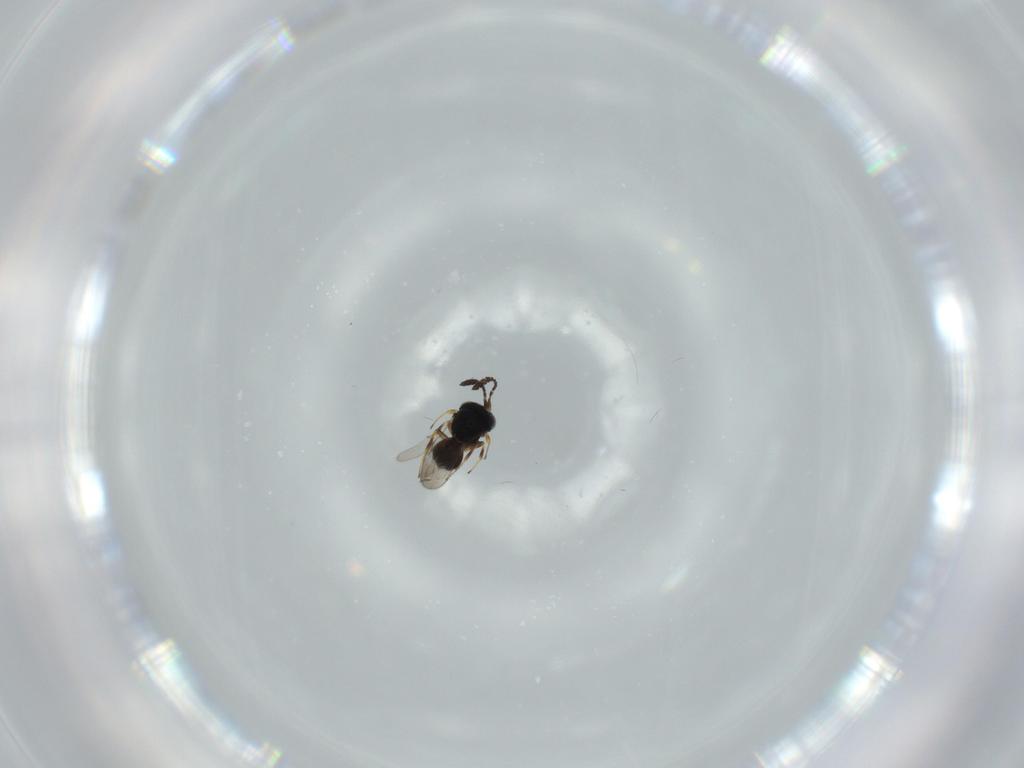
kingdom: Animalia
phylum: Arthropoda
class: Insecta
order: Hymenoptera
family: Scelionidae
